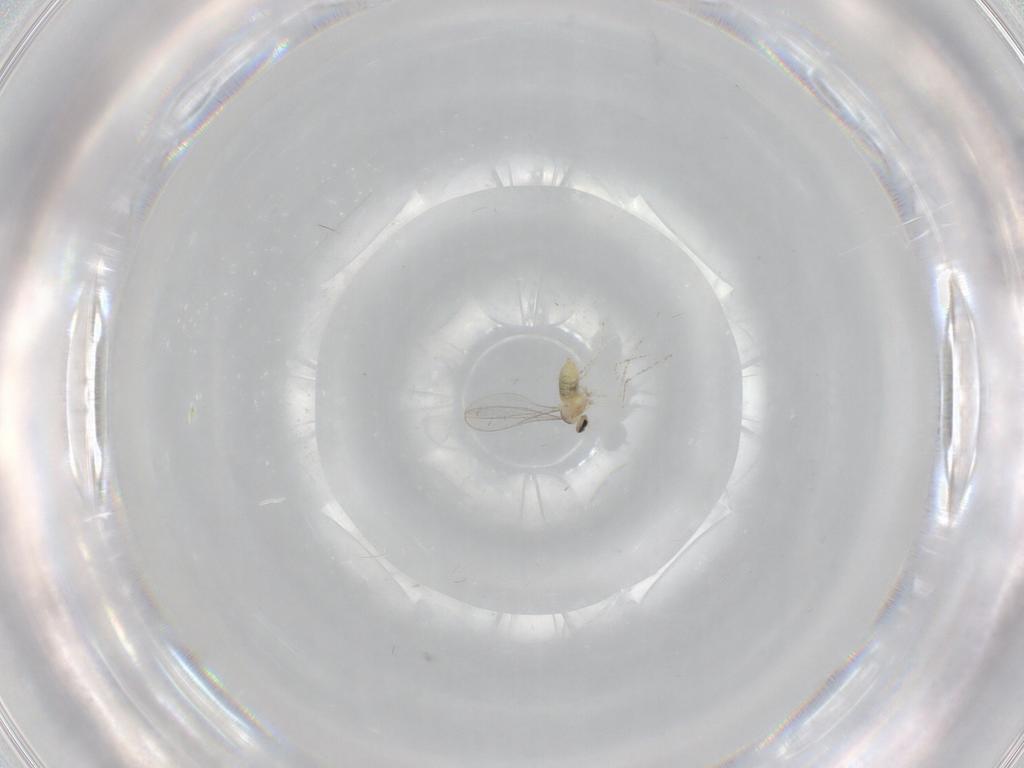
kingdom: Animalia
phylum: Arthropoda
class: Insecta
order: Diptera
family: Cecidomyiidae
